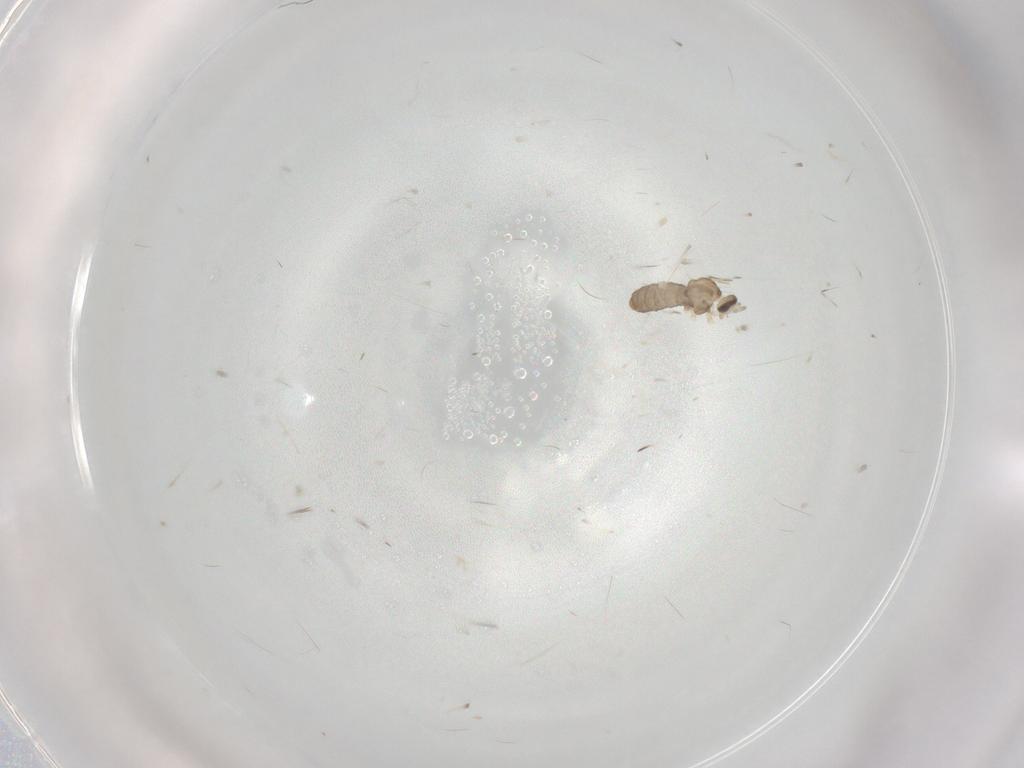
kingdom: Animalia
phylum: Arthropoda
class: Insecta
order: Diptera
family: Cecidomyiidae
